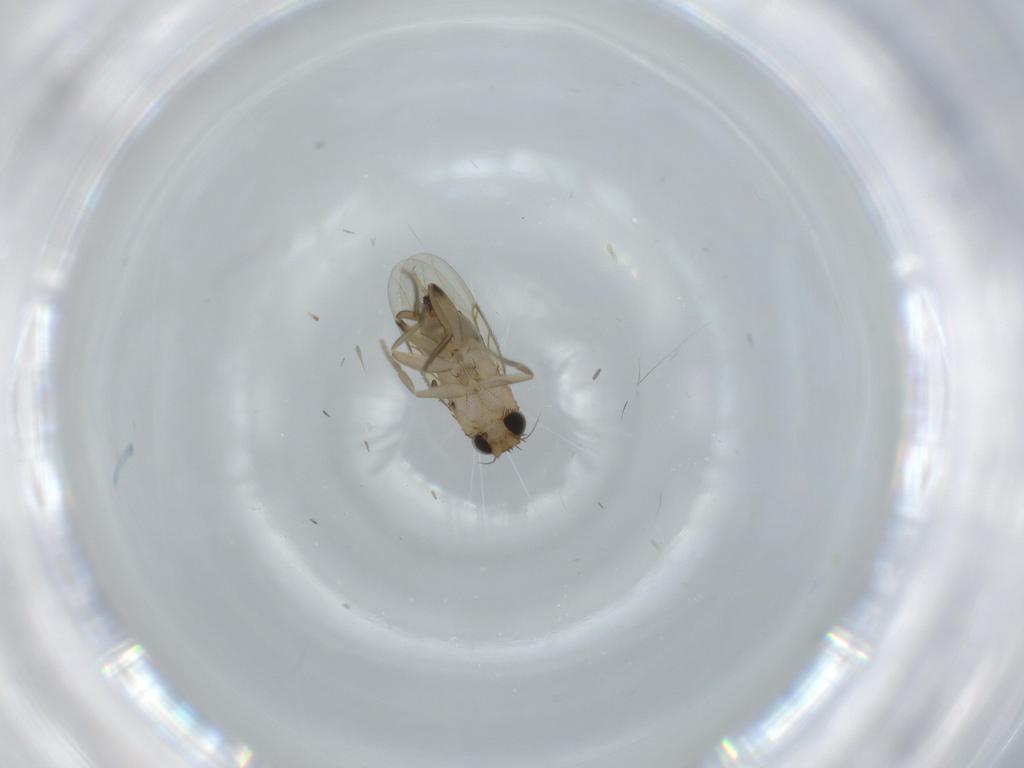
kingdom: Animalia
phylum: Arthropoda
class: Insecta
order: Diptera
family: Phoridae
